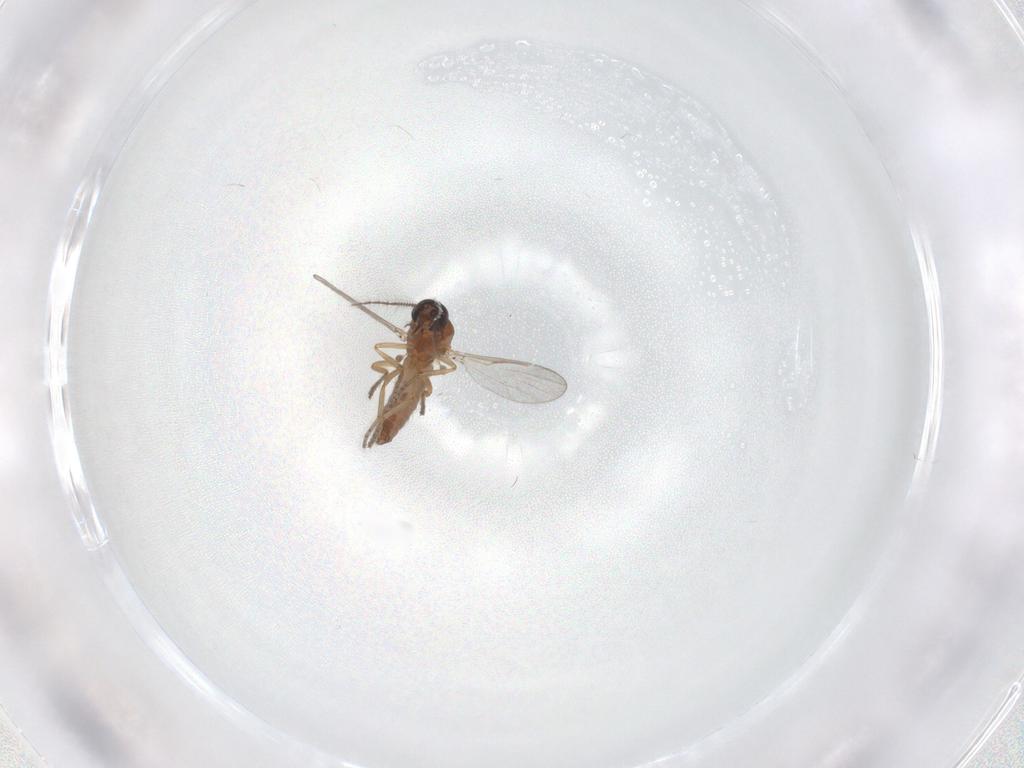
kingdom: Animalia
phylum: Arthropoda
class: Insecta
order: Diptera
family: Ceratopogonidae
